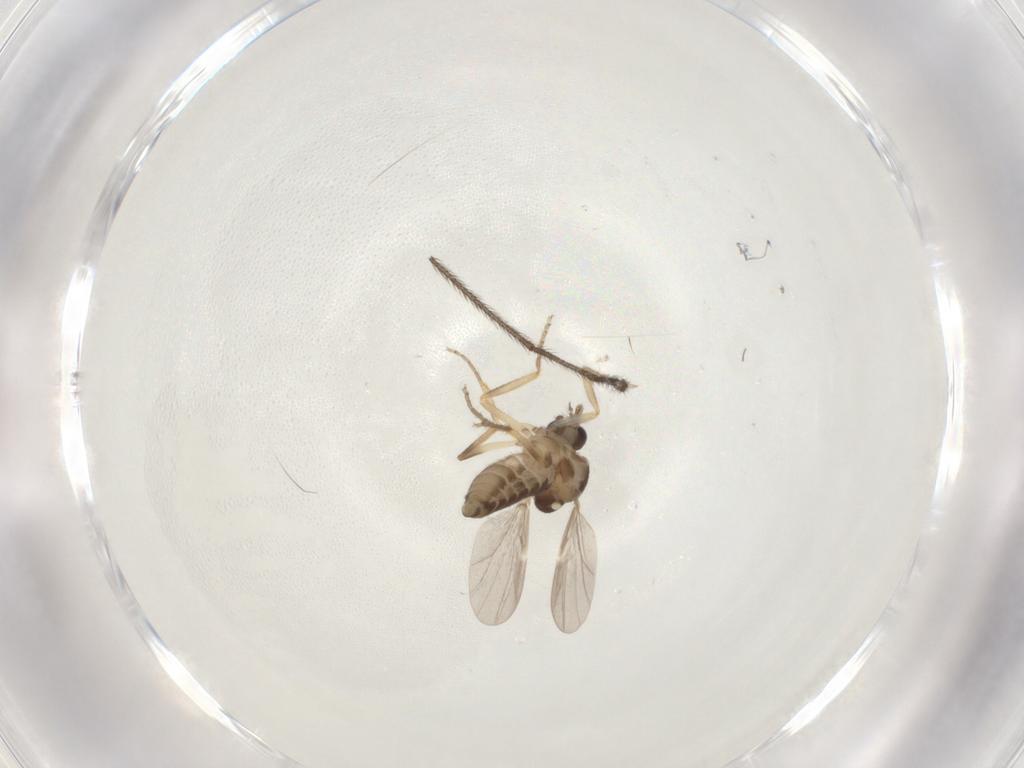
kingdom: Animalia
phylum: Arthropoda
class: Insecta
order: Diptera
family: Ceratopogonidae
